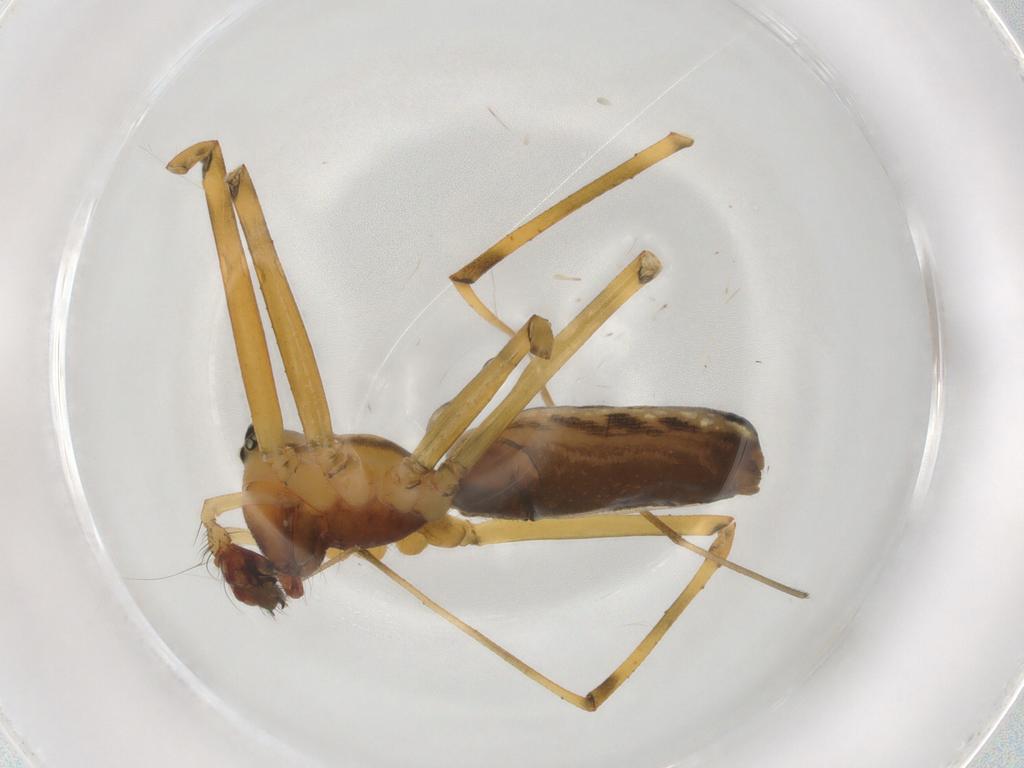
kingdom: Animalia
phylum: Arthropoda
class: Arachnida
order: Araneae
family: Linyphiidae
